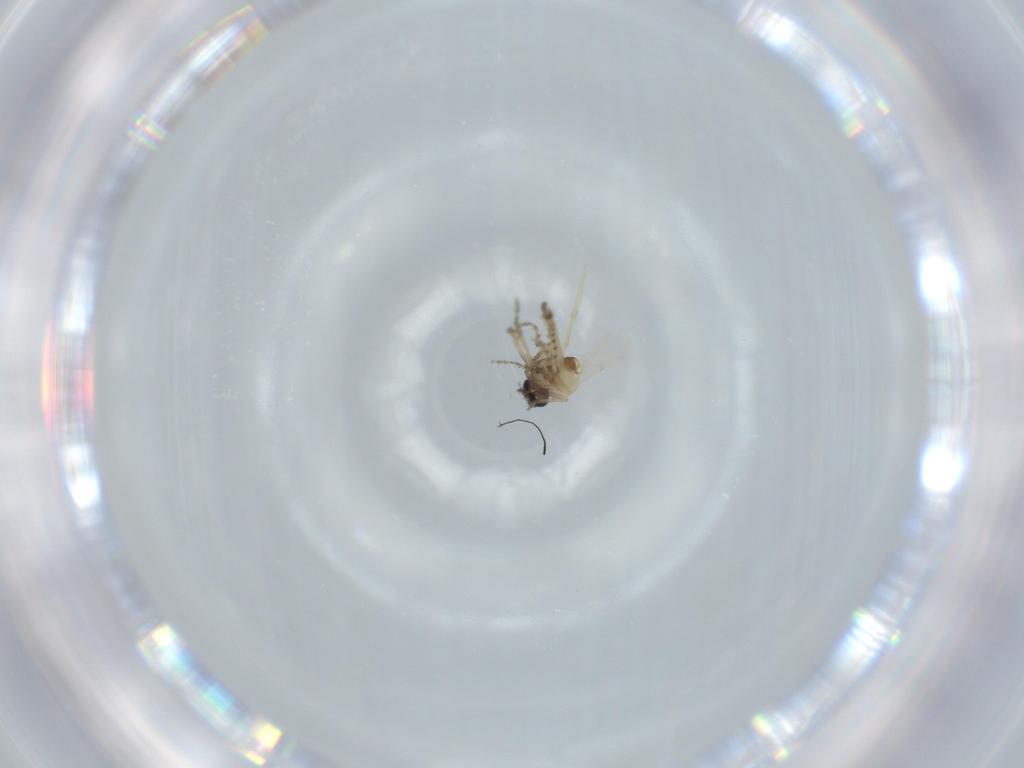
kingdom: Animalia
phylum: Arthropoda
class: Insecta
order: Diptera
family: Ceratopogonidae
